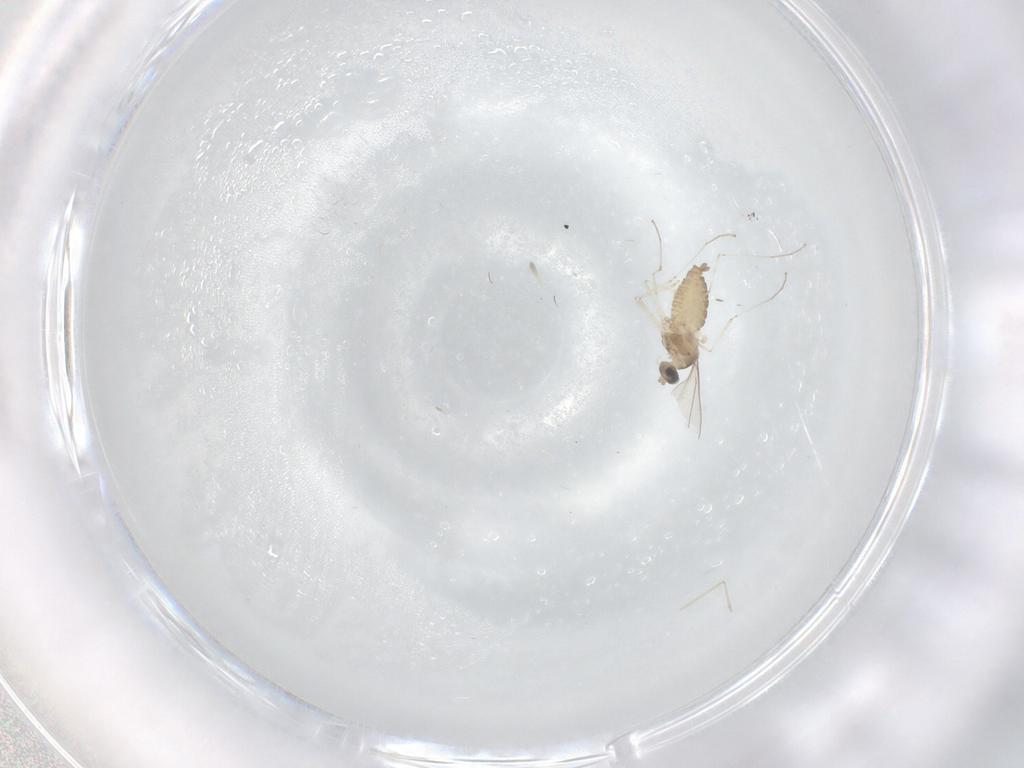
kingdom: Animalia
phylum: Arthropoda
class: Insecta
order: Diptera
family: Cecidomyiidae
